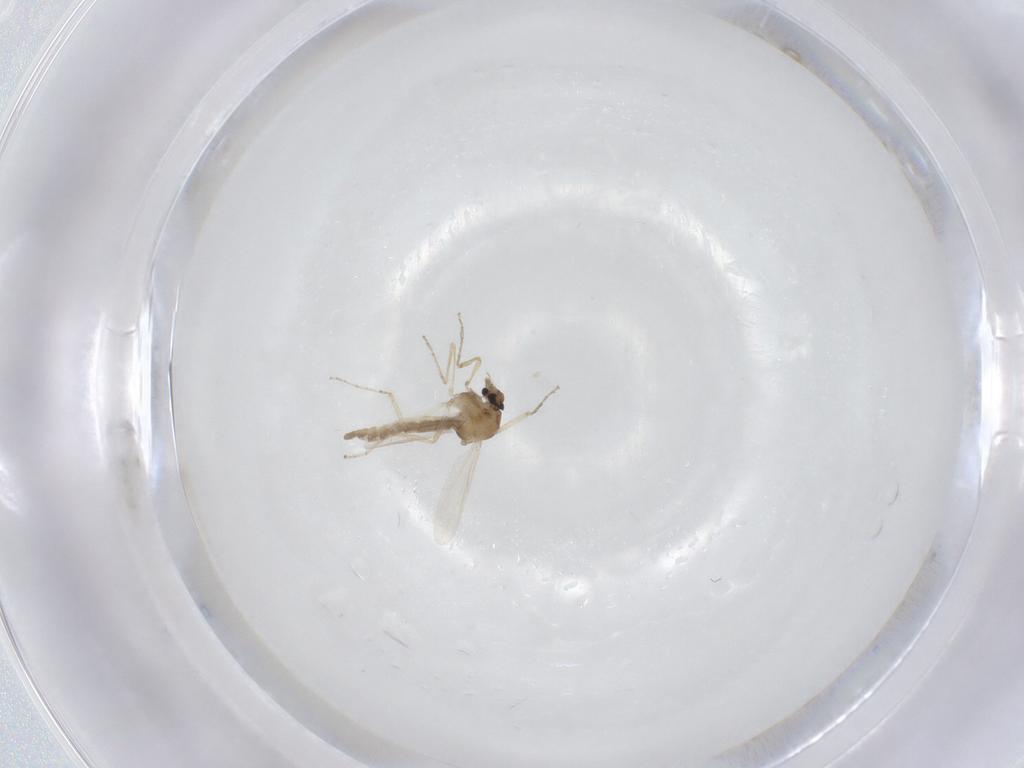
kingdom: Animalia
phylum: Arthropoda
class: Insecta
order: Diptera
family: Ceratopogonidae
